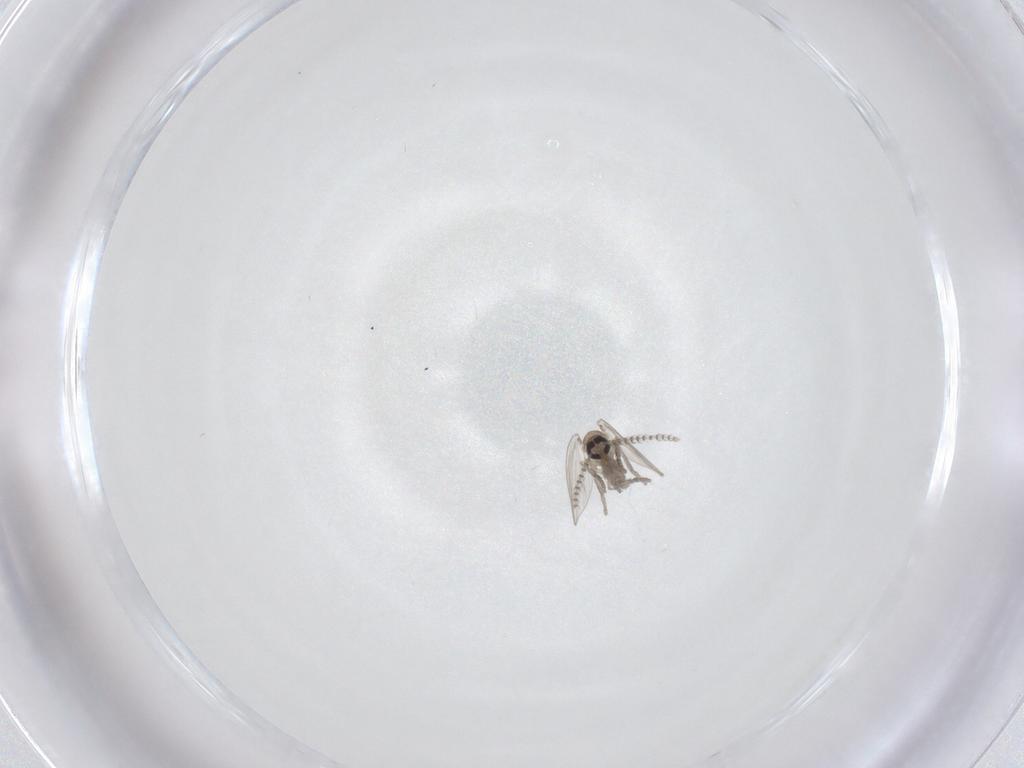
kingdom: Animalia
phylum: Arthropoda
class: Insecta
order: Diptera
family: Psychodidae
